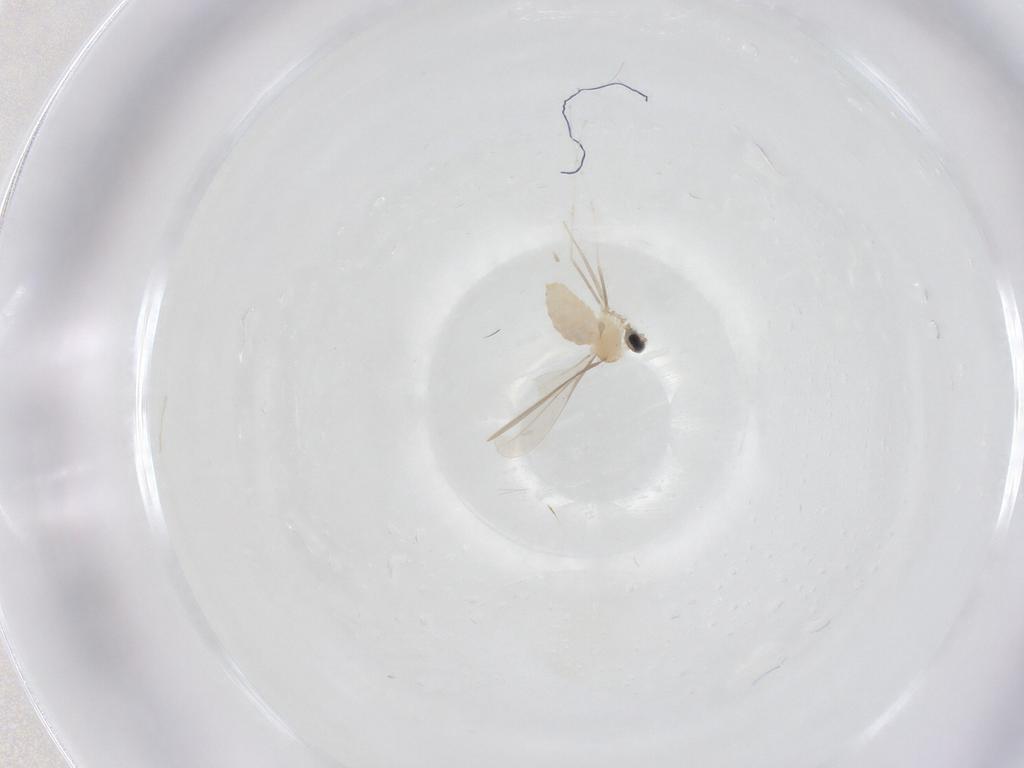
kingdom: Animalia
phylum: Arthropoda
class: Insecta
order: Diptera
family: Cecidomyiidae
